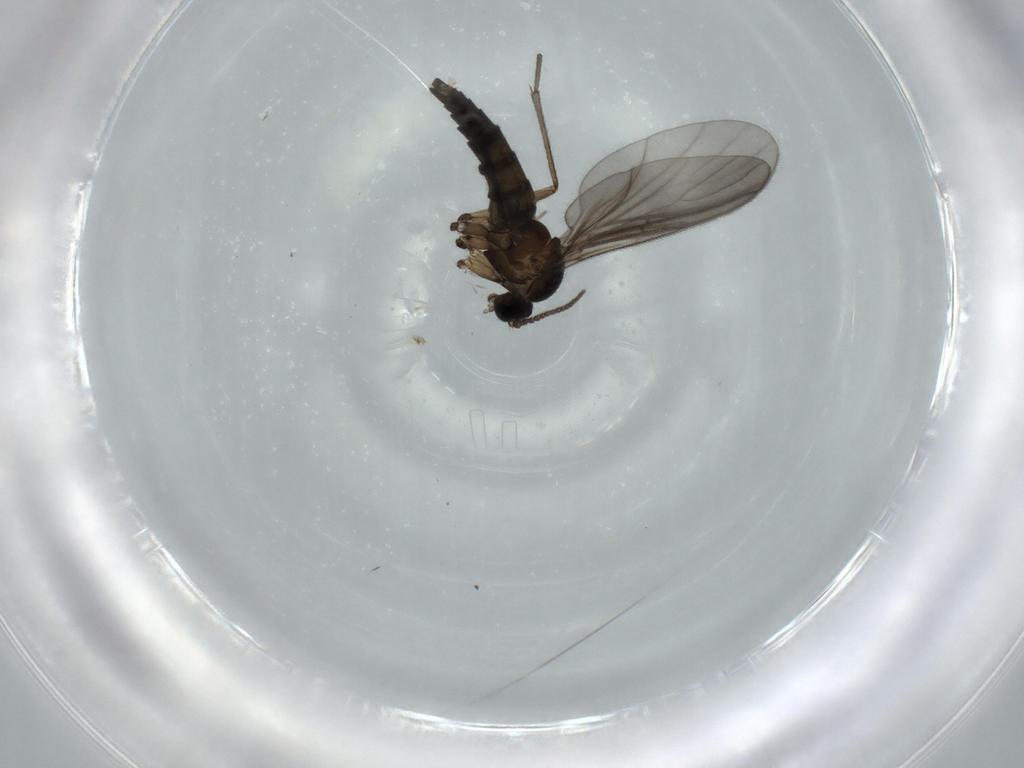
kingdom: Animalia
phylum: Arthropoda
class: Insecta
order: Diptera
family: Sciaridae
